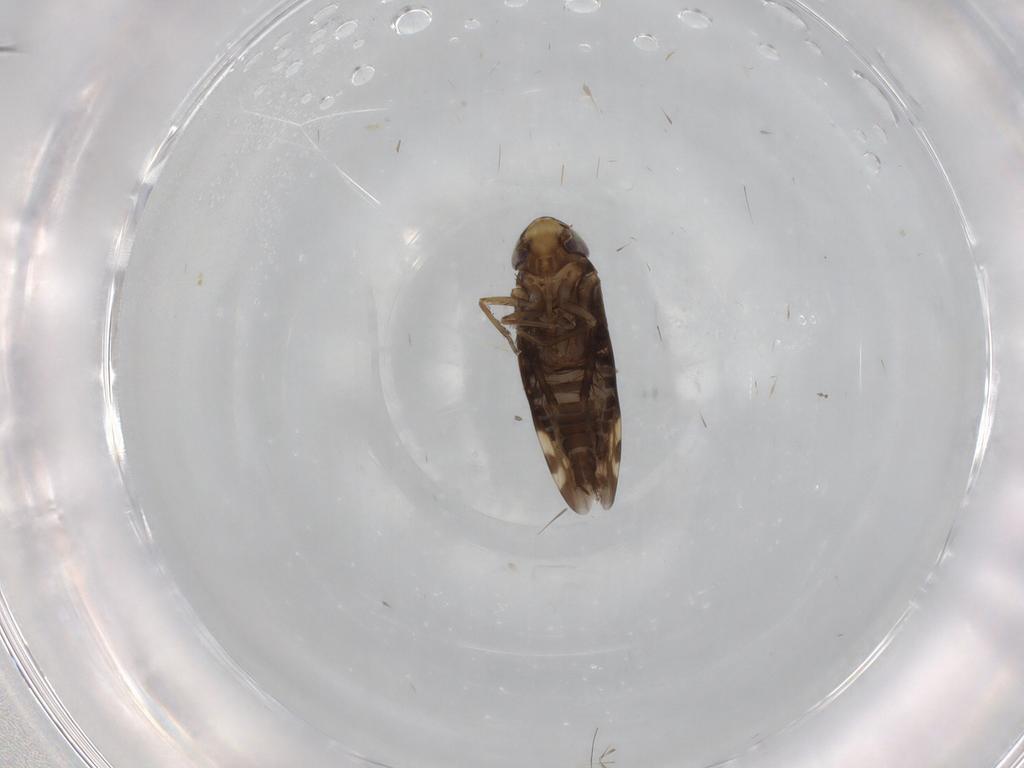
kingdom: Animalia
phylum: Arthropoda
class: Insecta
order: Hemiptera
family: Cicadellidae
